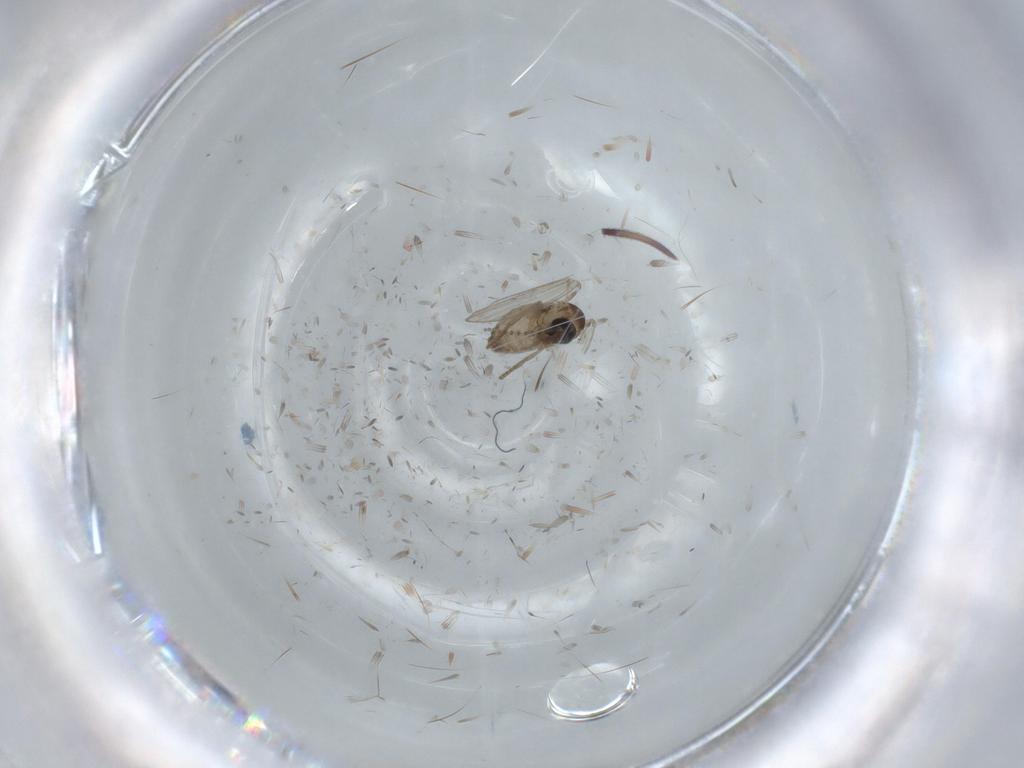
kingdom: Animalia
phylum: Arthropoda
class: Insecta
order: Diptera
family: Psychodidae
